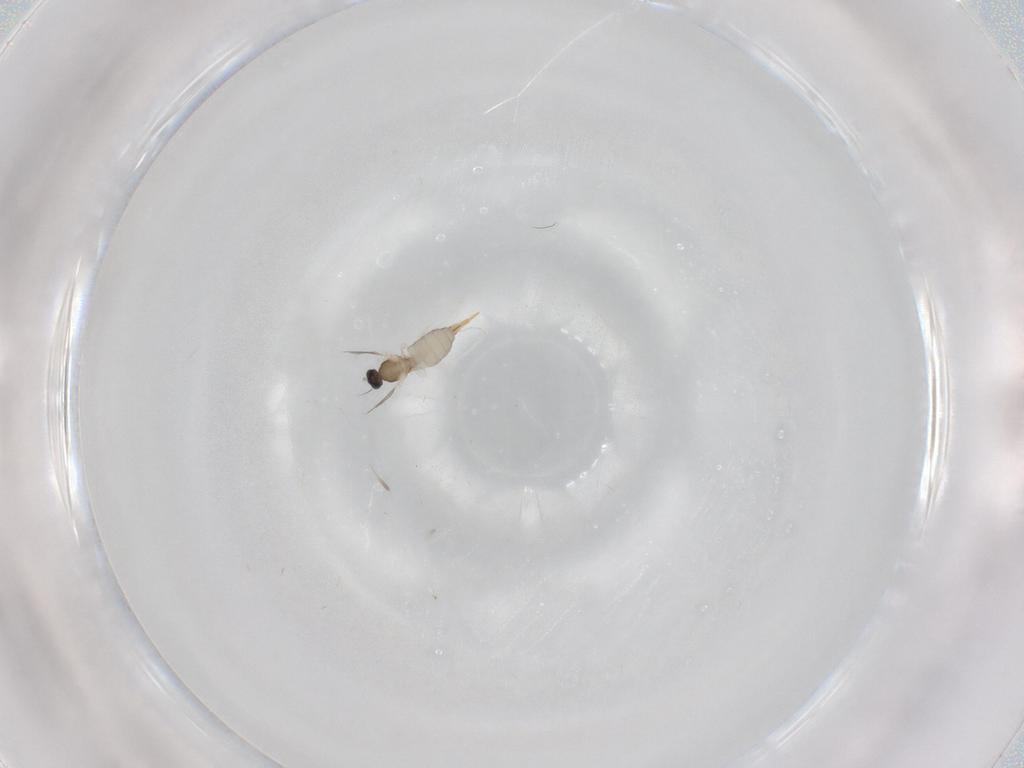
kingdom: Animalia
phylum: Arthropoda
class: Insecta
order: Diptera
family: Cecidomyiidae
